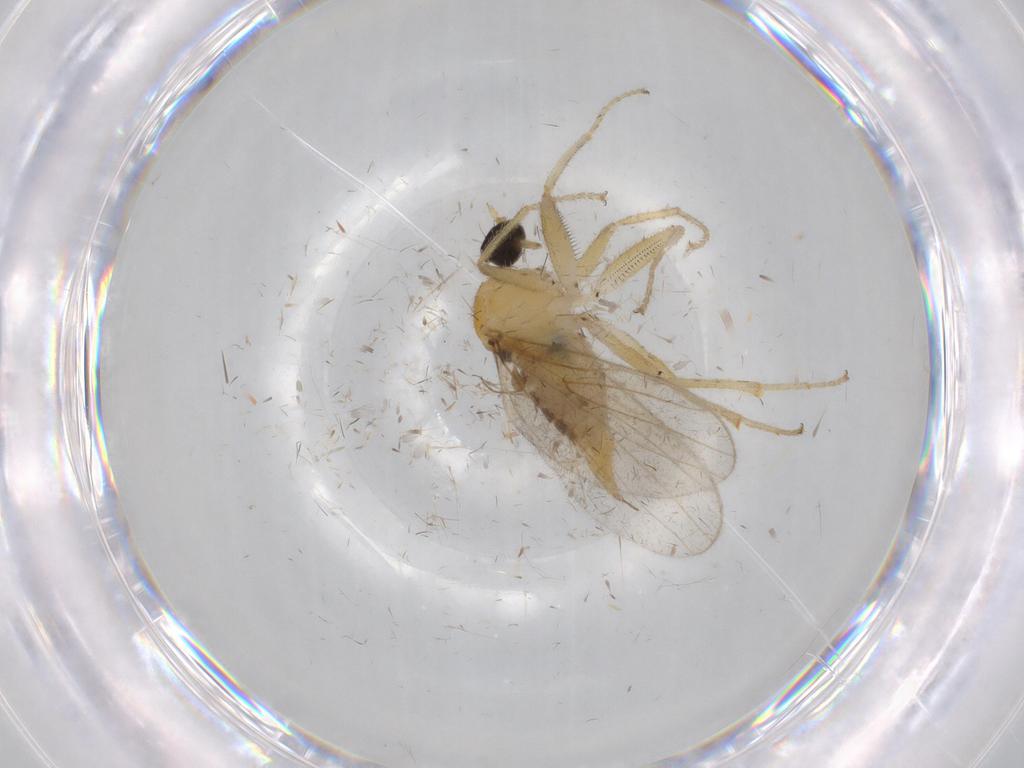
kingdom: Animalia
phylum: Arthropoda
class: Insecta
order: Diptera
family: Hybotidae
